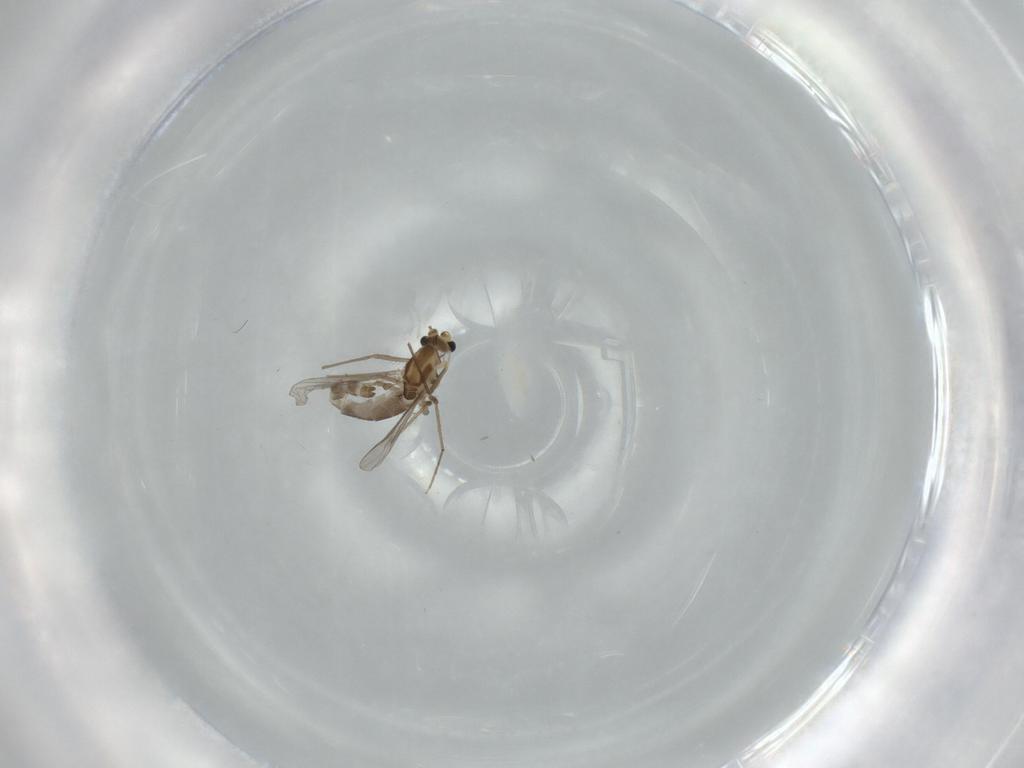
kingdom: Animalia
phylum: Arthropoda
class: Insecta
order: Diptera
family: Chironomidae
